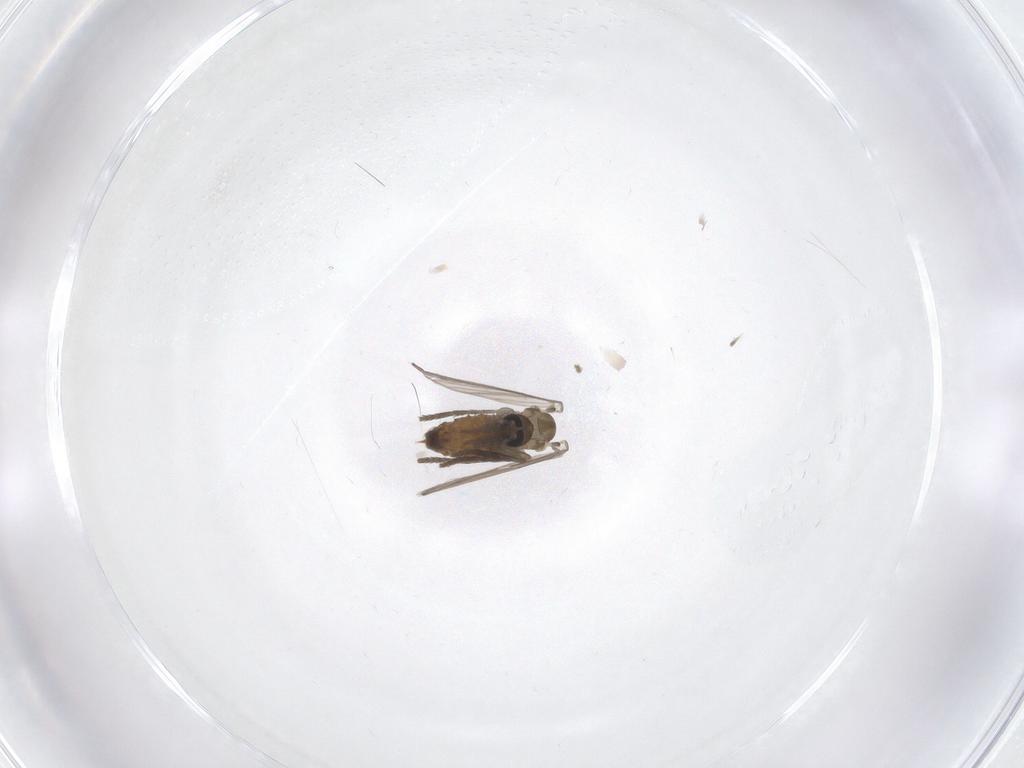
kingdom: Animalia
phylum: Arthropoda
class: Insecta
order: Diptera
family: Psychodidae
